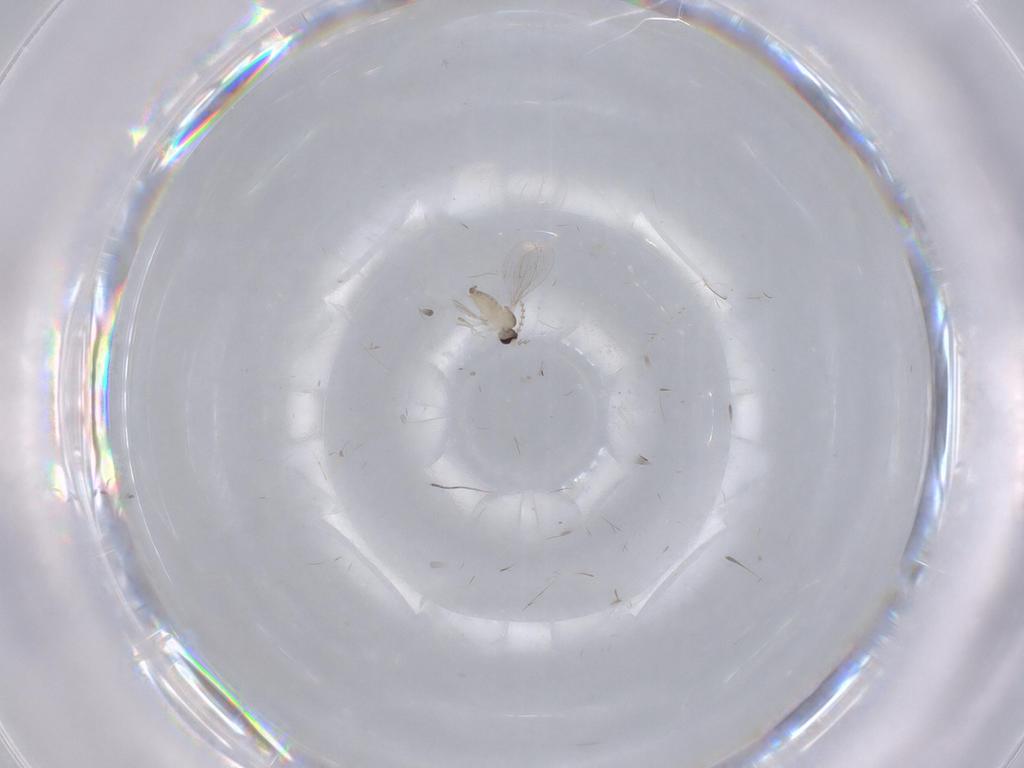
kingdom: Animalia
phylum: Arthropoda
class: Insecta
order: Diptera
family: Cecidomyiidae
